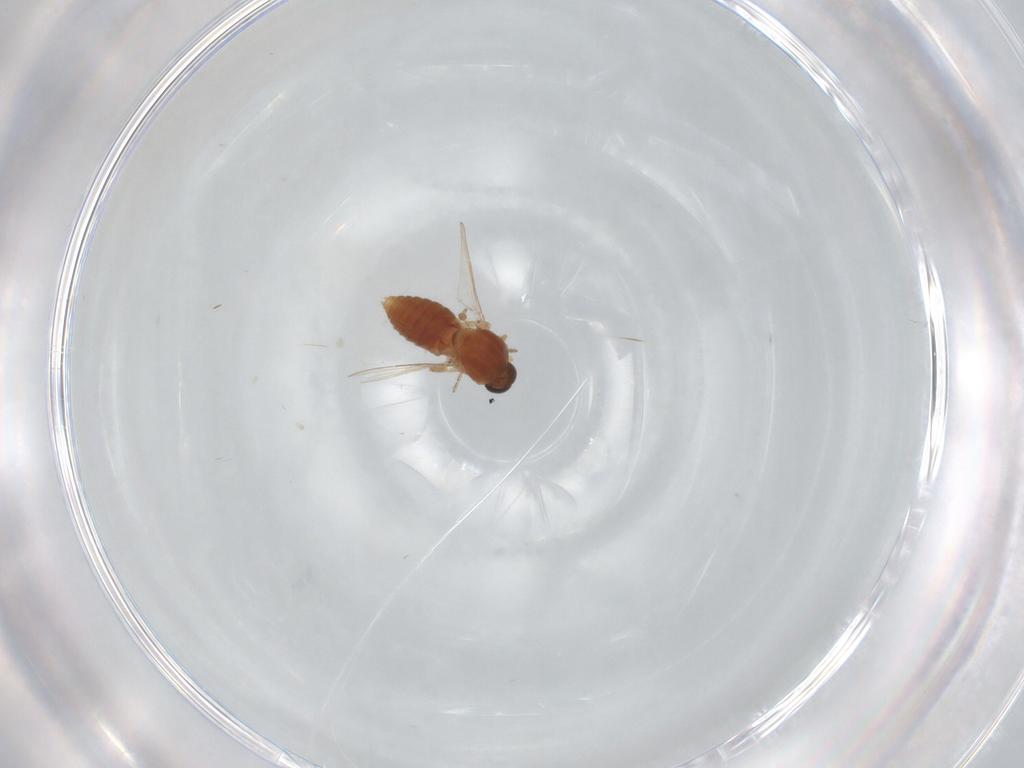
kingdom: Animalia
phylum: Arthropoda
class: Insecta
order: Diptera
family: Ceratopogonidae
